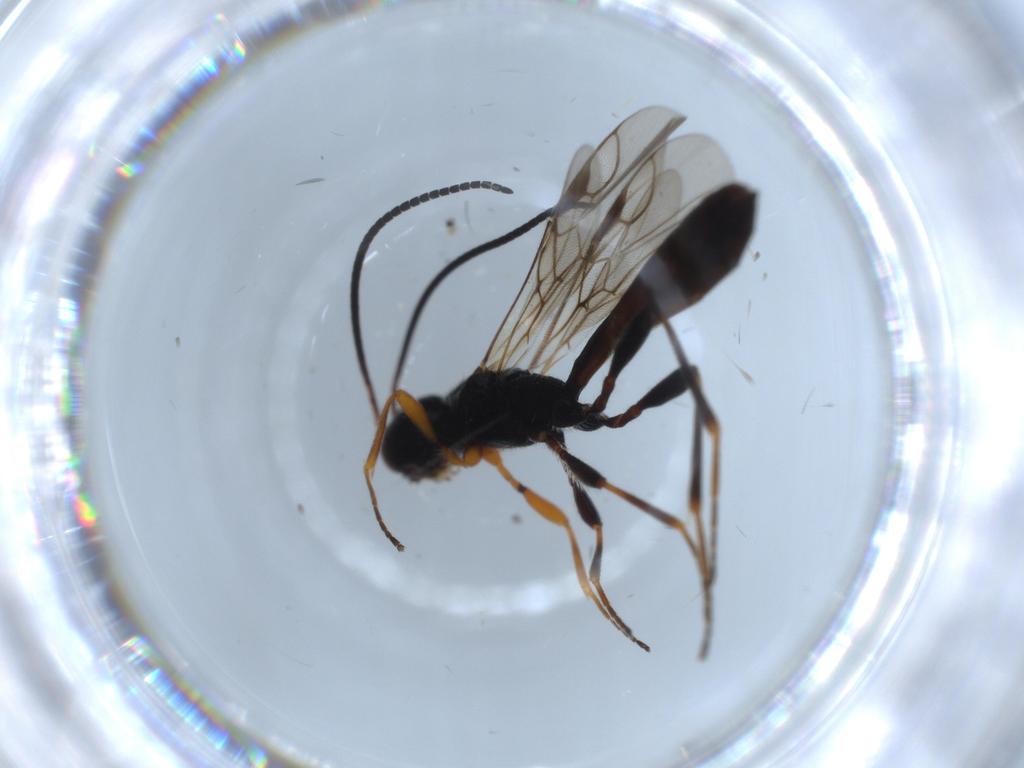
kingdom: Animalia
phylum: Arthropoda
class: Insecta
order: Hymenoptera
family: Braconidae
